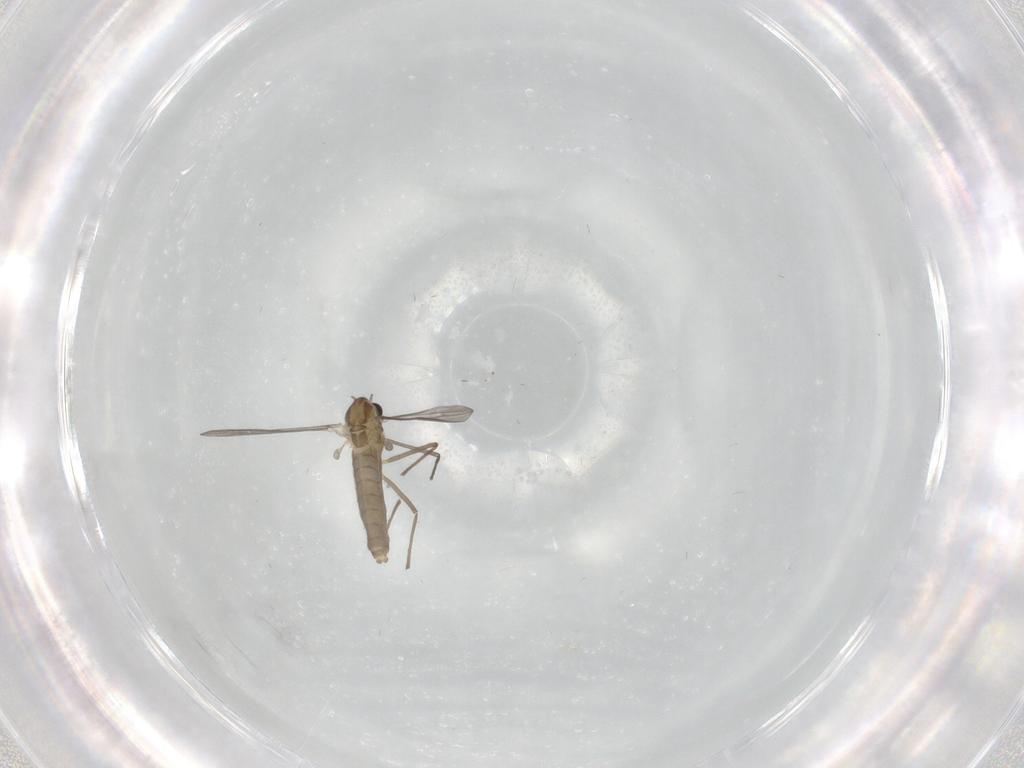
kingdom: Animalia
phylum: Arthropoda
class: Insecta
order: Diptera
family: Chironomidae
